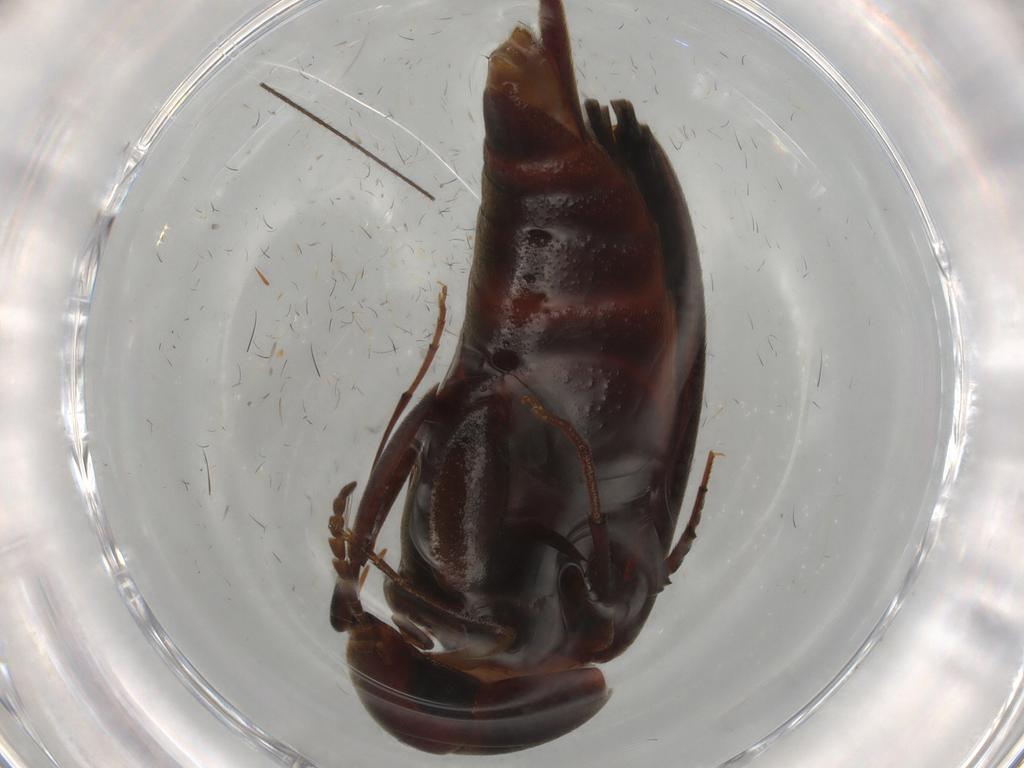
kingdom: Animalia
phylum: Arthropoda
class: Insecta
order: Coleoptera
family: Mordellidae
